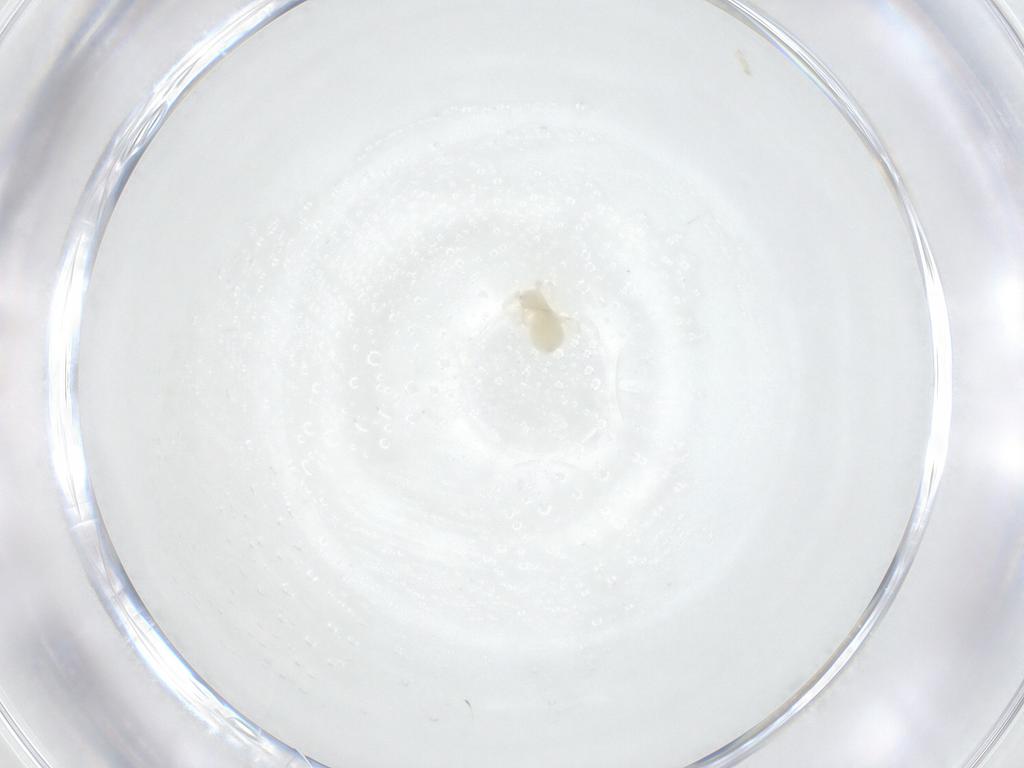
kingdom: Animalia
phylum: Arthropoda
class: Arachnida
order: Trombidiformes
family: Anystidae
